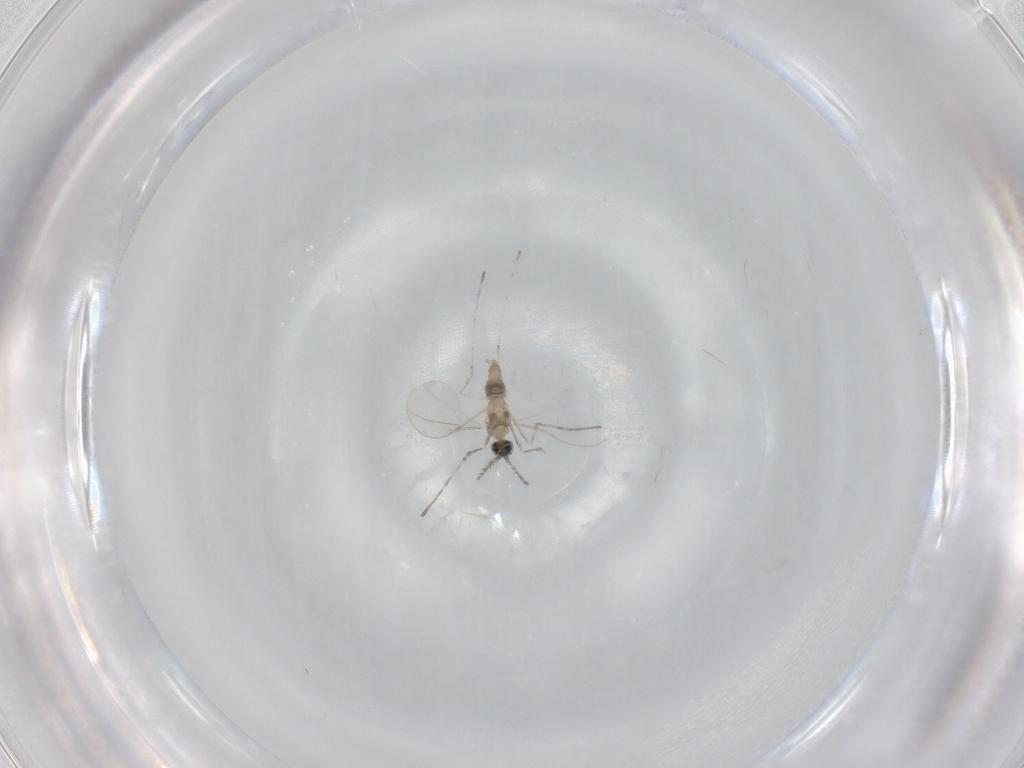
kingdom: Animalia
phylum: Arthropoda
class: Insecta
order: Diptera
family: Cecidomyiidae
